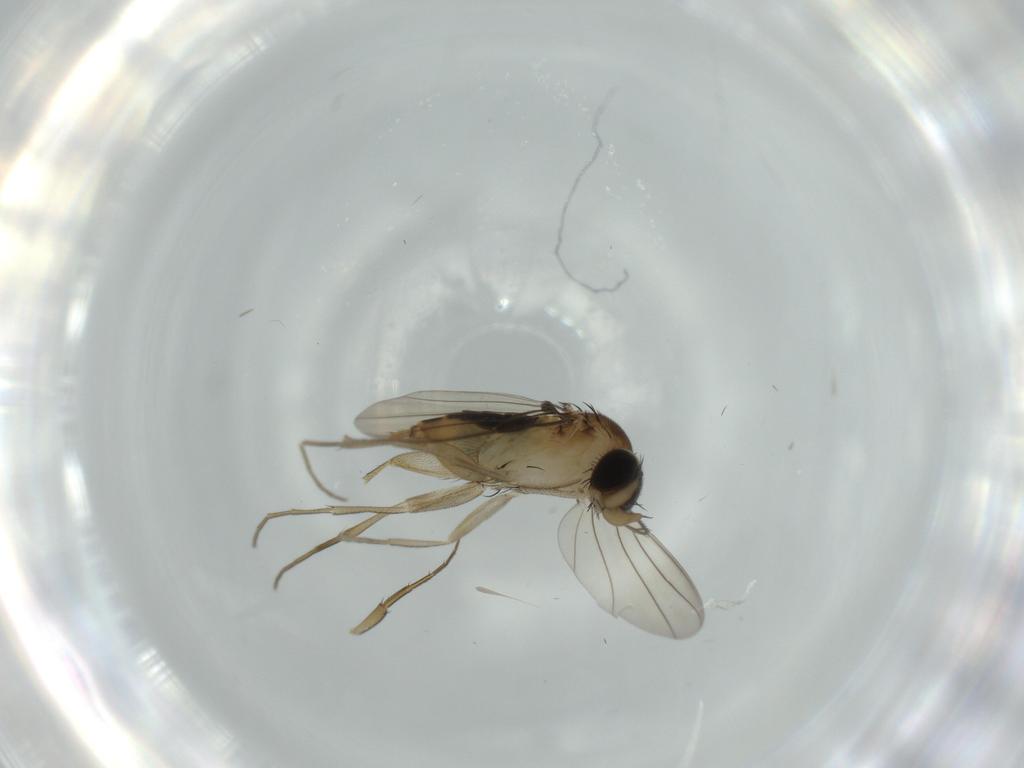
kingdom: Animalia
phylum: Arthropoda
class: Insecta
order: Diptera
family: Phoridae
